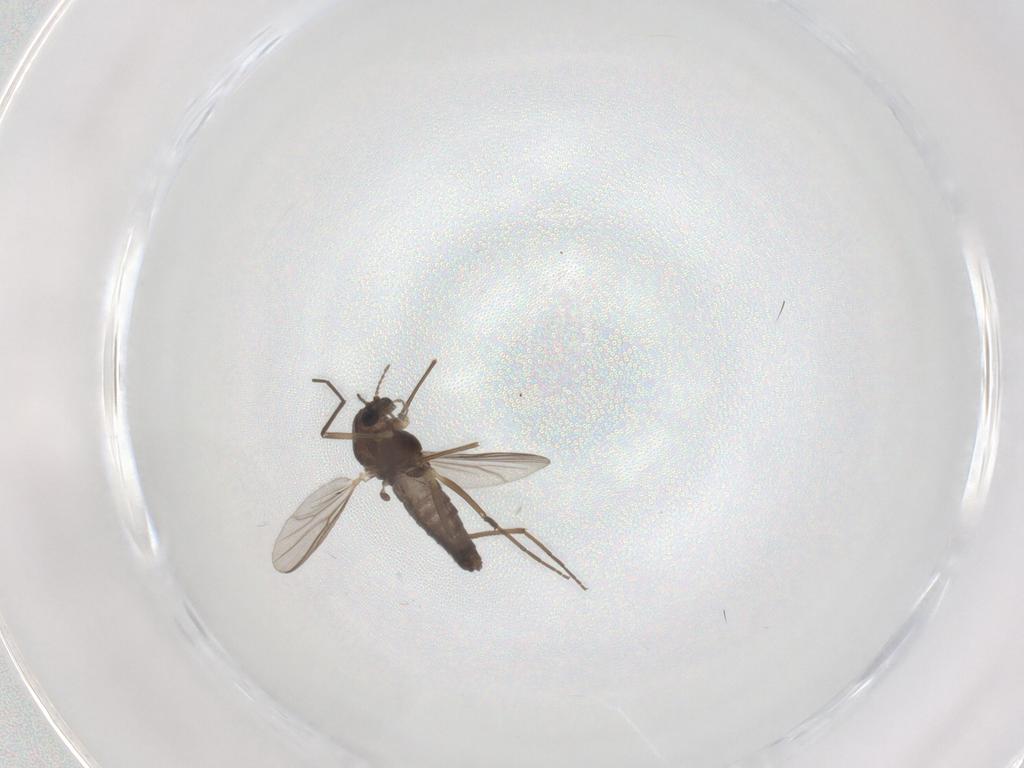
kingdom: Animalia
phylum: Arthropoda
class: Insecta
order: Diptera
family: Chironomidae
